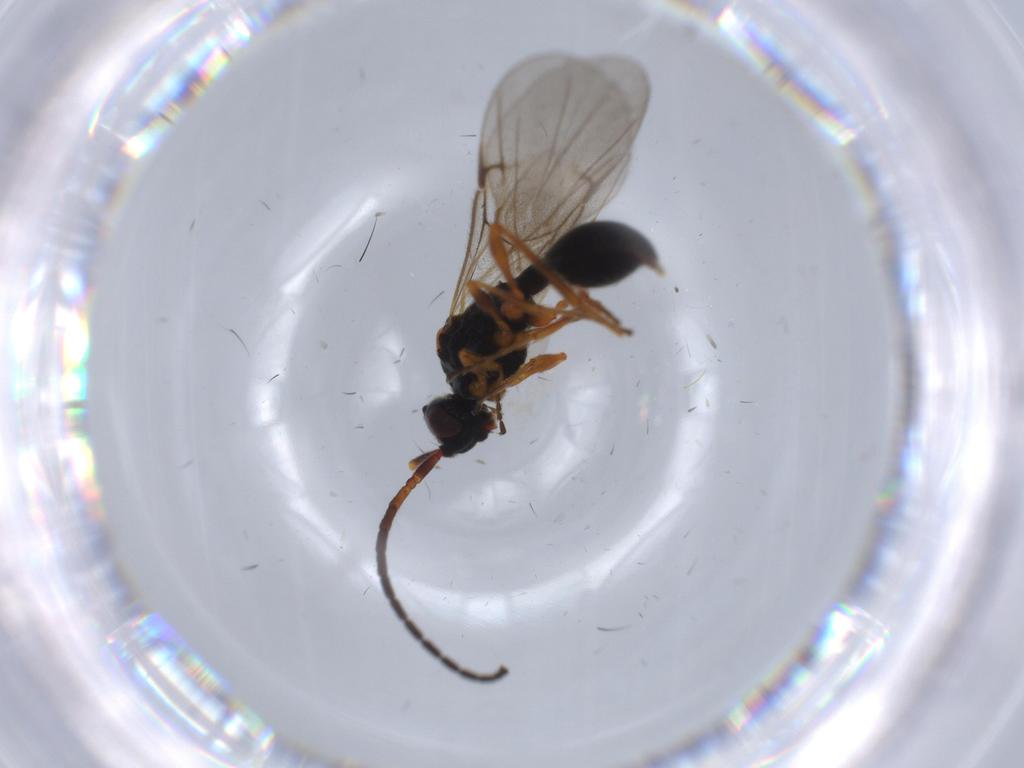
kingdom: Animalia
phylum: Arthropoda
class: Insecta
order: Hymenoptera
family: Diapriidae
